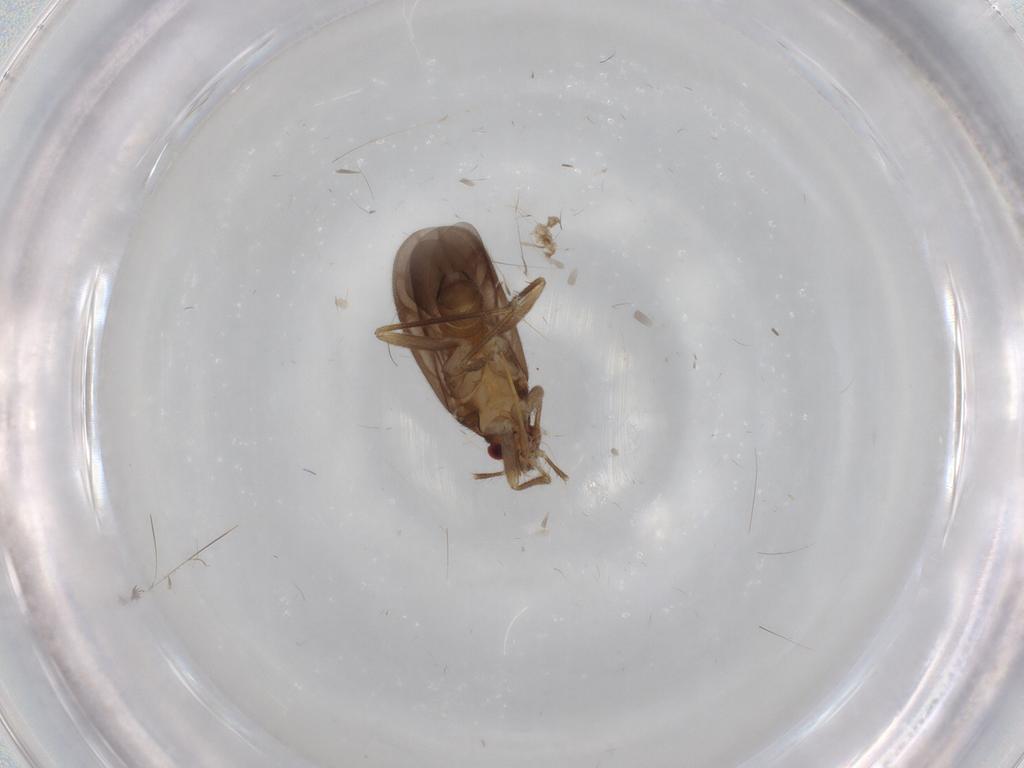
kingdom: Animalia
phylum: Arthropoda
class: Insecta
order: Hemiptera
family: Ceratocombidae
